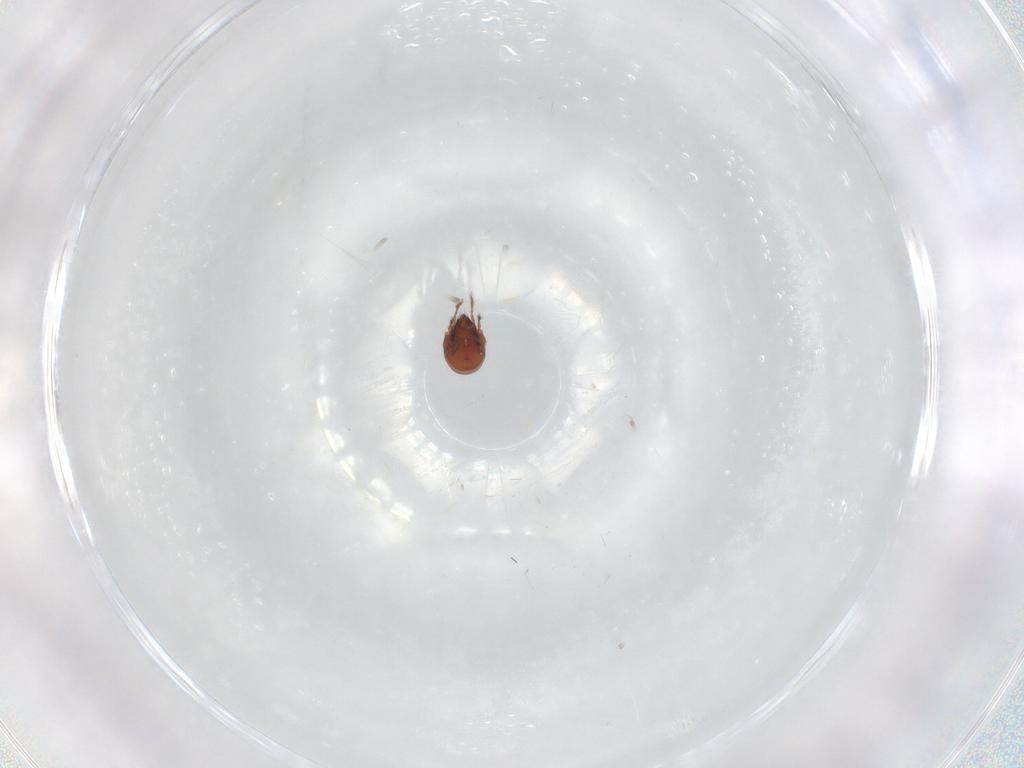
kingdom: Animalia
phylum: Arthropoda
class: Arachnida
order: Sarcoptiformes
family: Ceratozetidae
